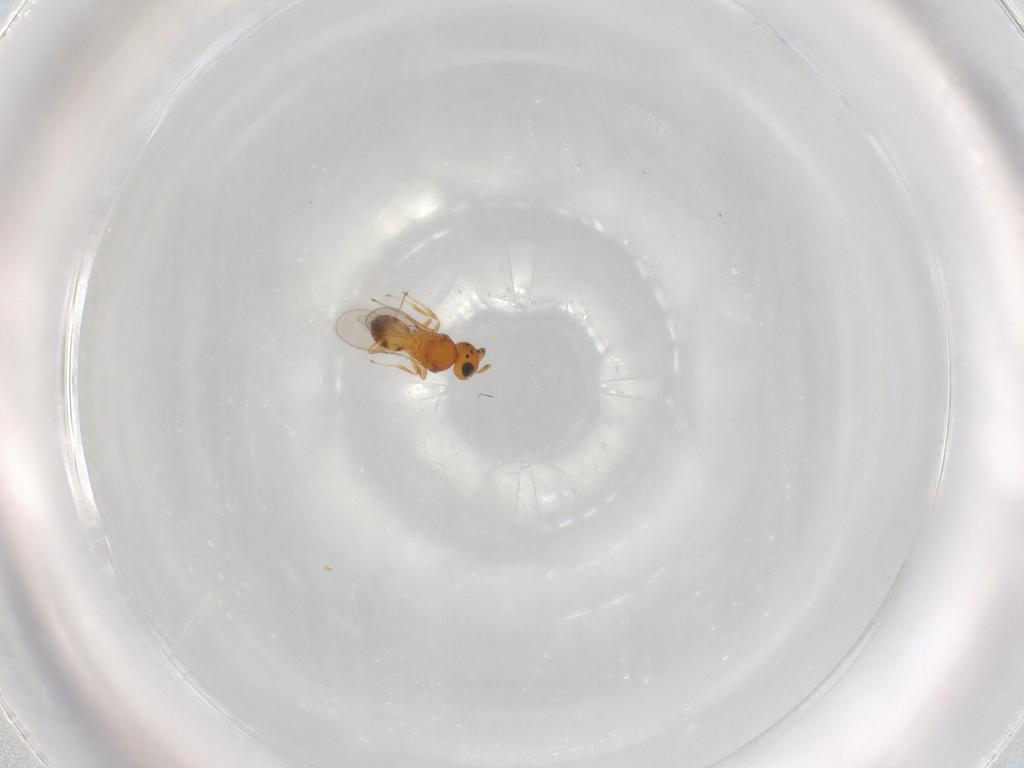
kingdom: Animalia
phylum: Arthropoda
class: Insecta
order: Hymenoptera
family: Scelionidae
